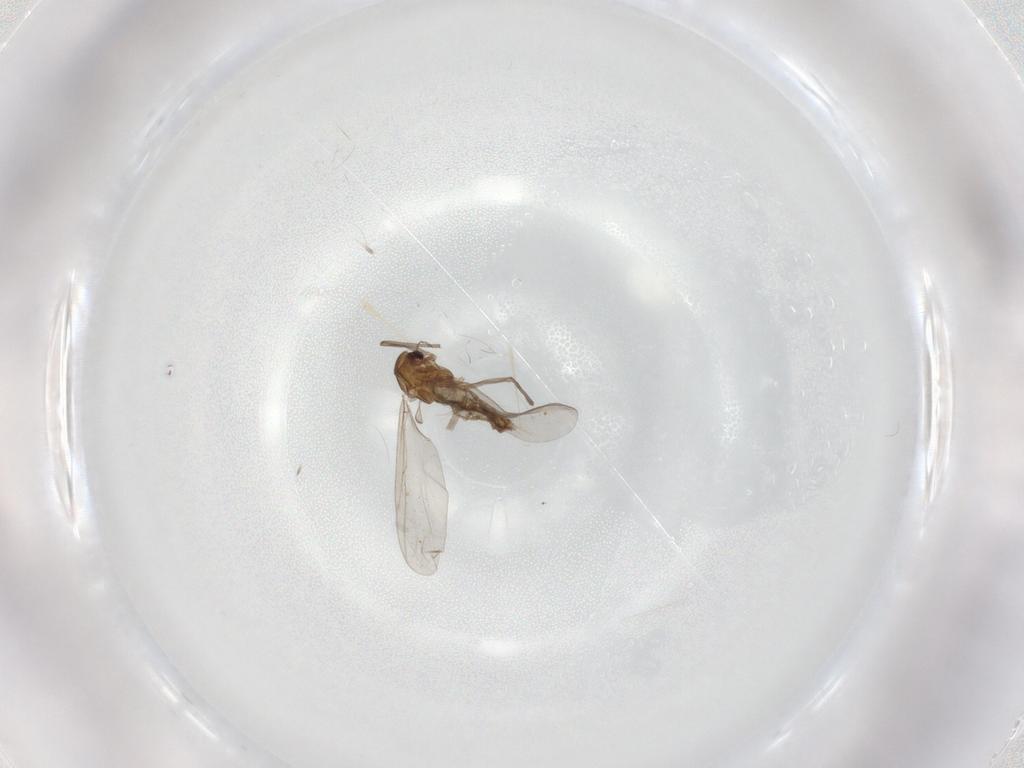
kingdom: Animalia
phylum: Arthropoda
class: Insecta
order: Diptera
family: Chironomidae
